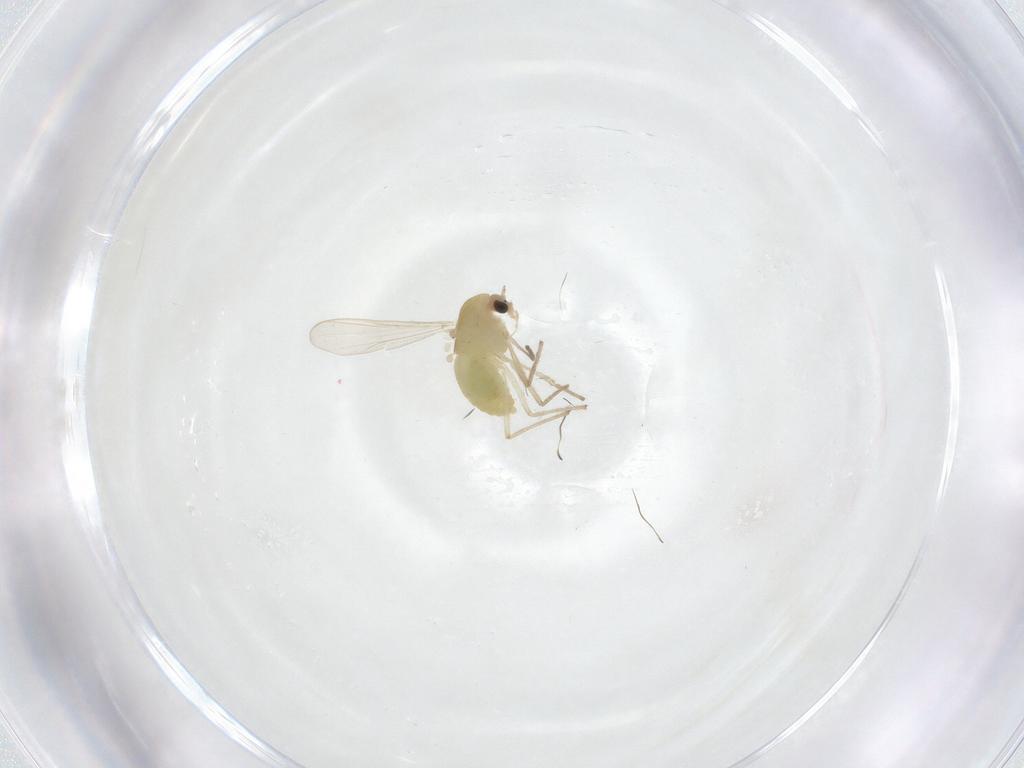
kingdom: Animalia
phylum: Arthropoda
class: Insecta
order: Diptera
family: Chironomidae
